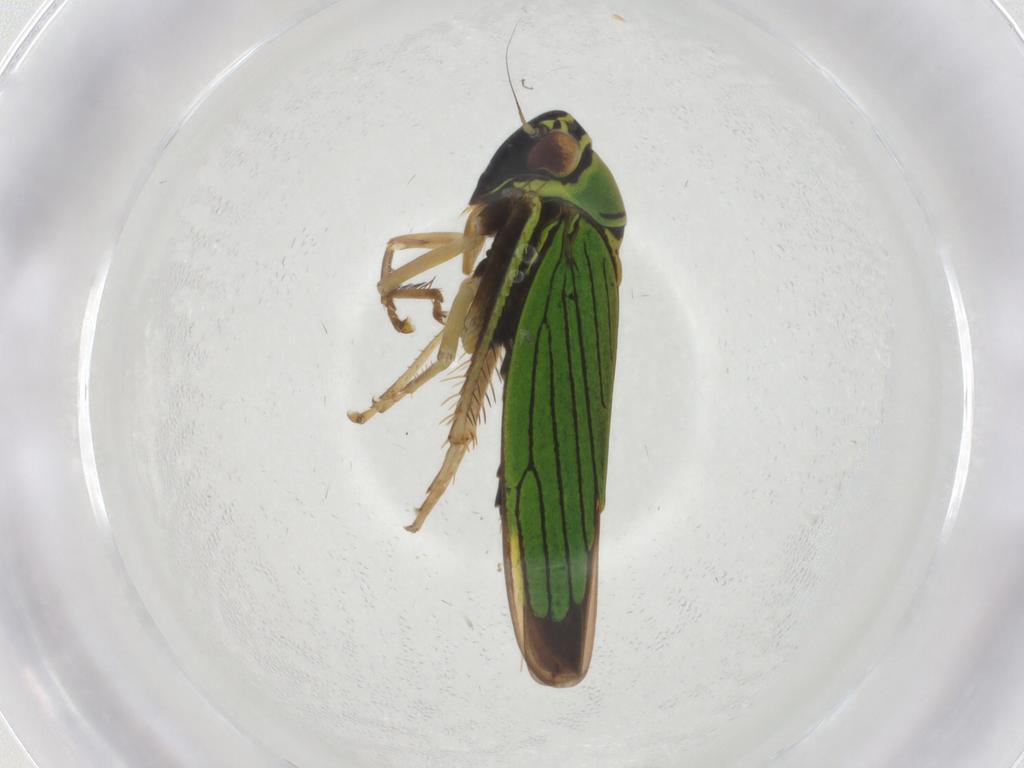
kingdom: Animalia
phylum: Arthropoda
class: Insecta
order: Hemiptera
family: Cicadellidae
